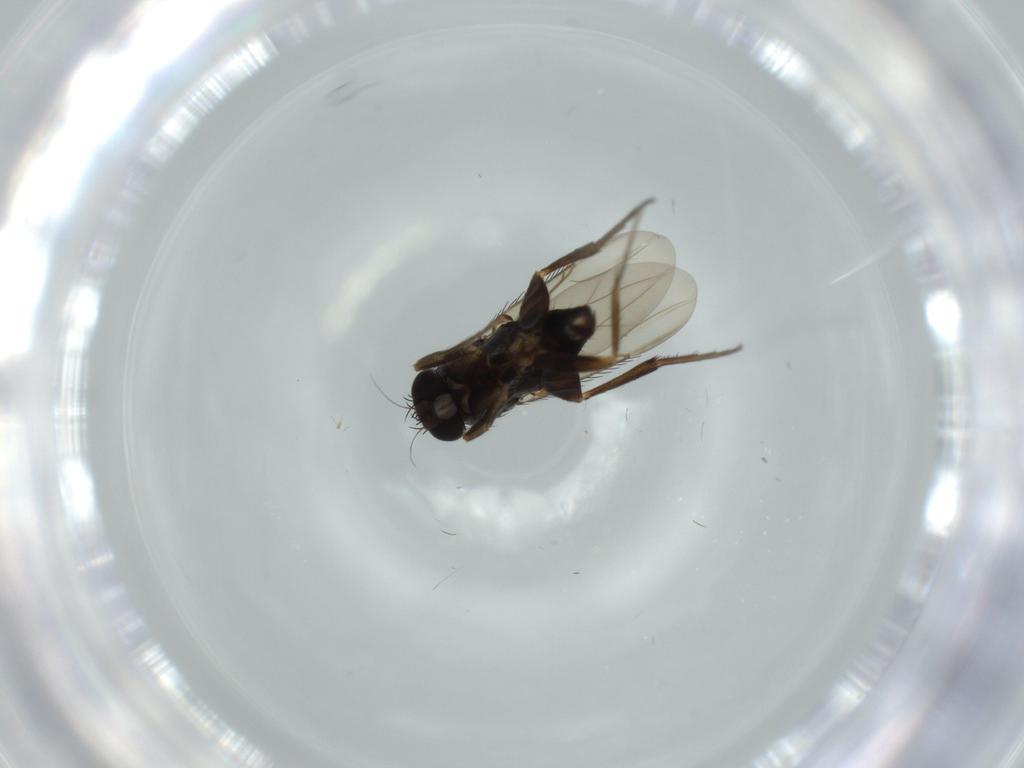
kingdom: Animalia
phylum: Arthropoda
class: Insecta
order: Diptera
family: Phoridae
